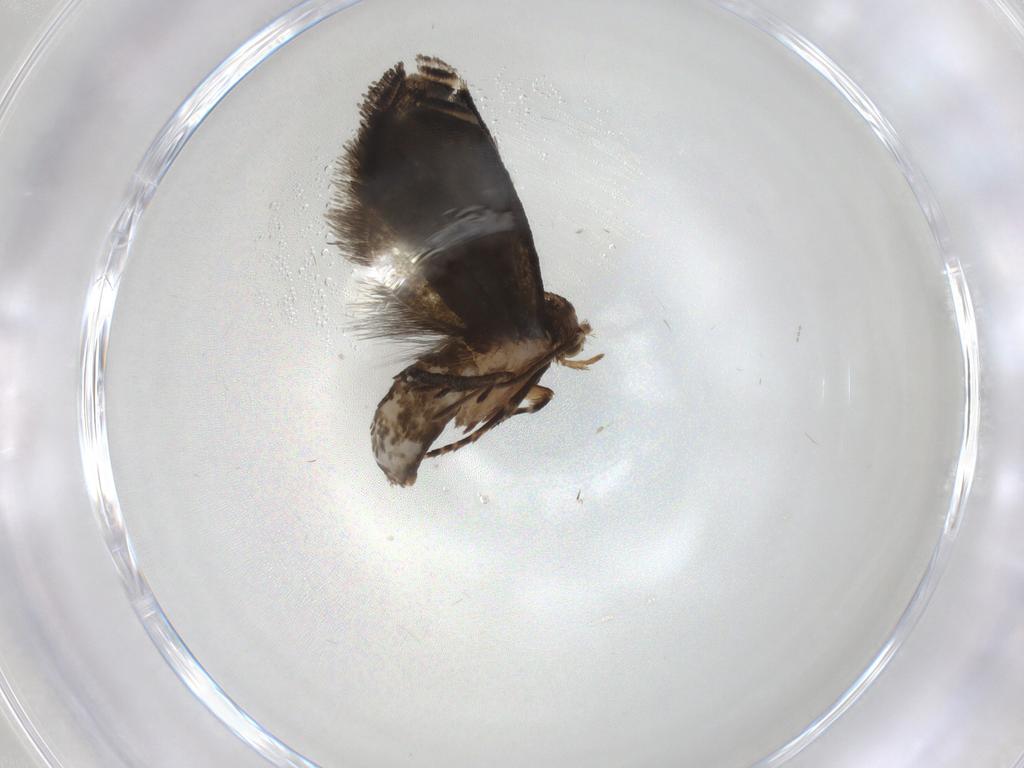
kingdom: Animalia
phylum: Arthropoda
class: Insecta
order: Lepidoptera
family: Tineidae
